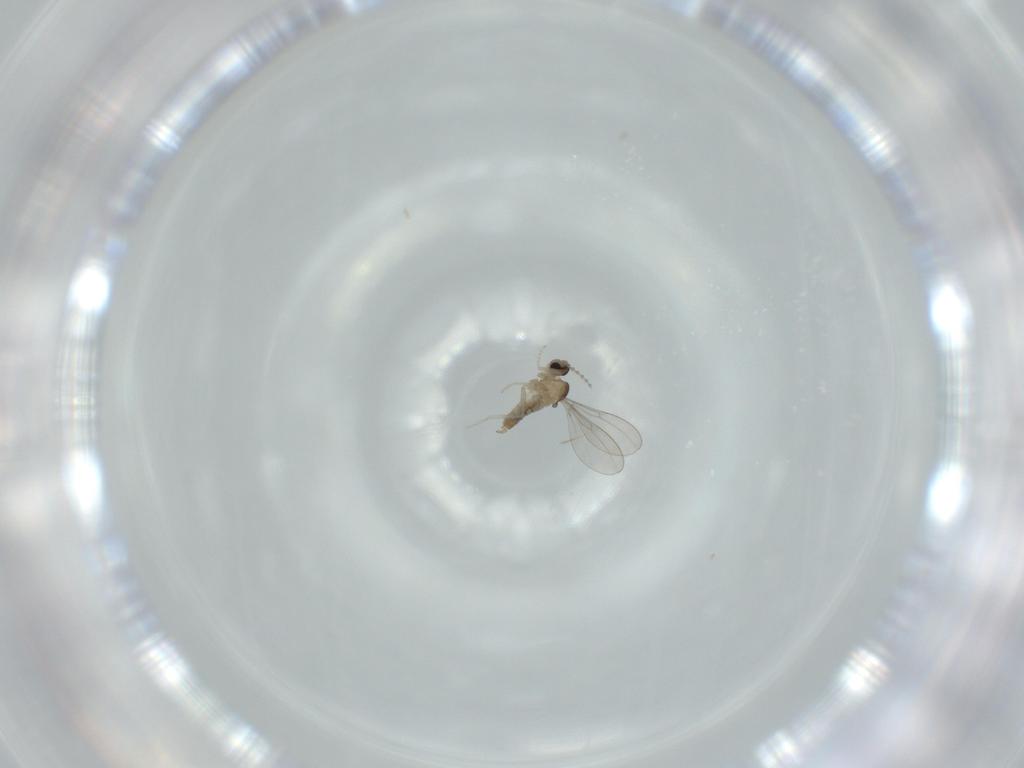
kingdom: Animalia
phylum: Arthropoda
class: Insecta
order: Diptera
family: Cecidomyiidae
